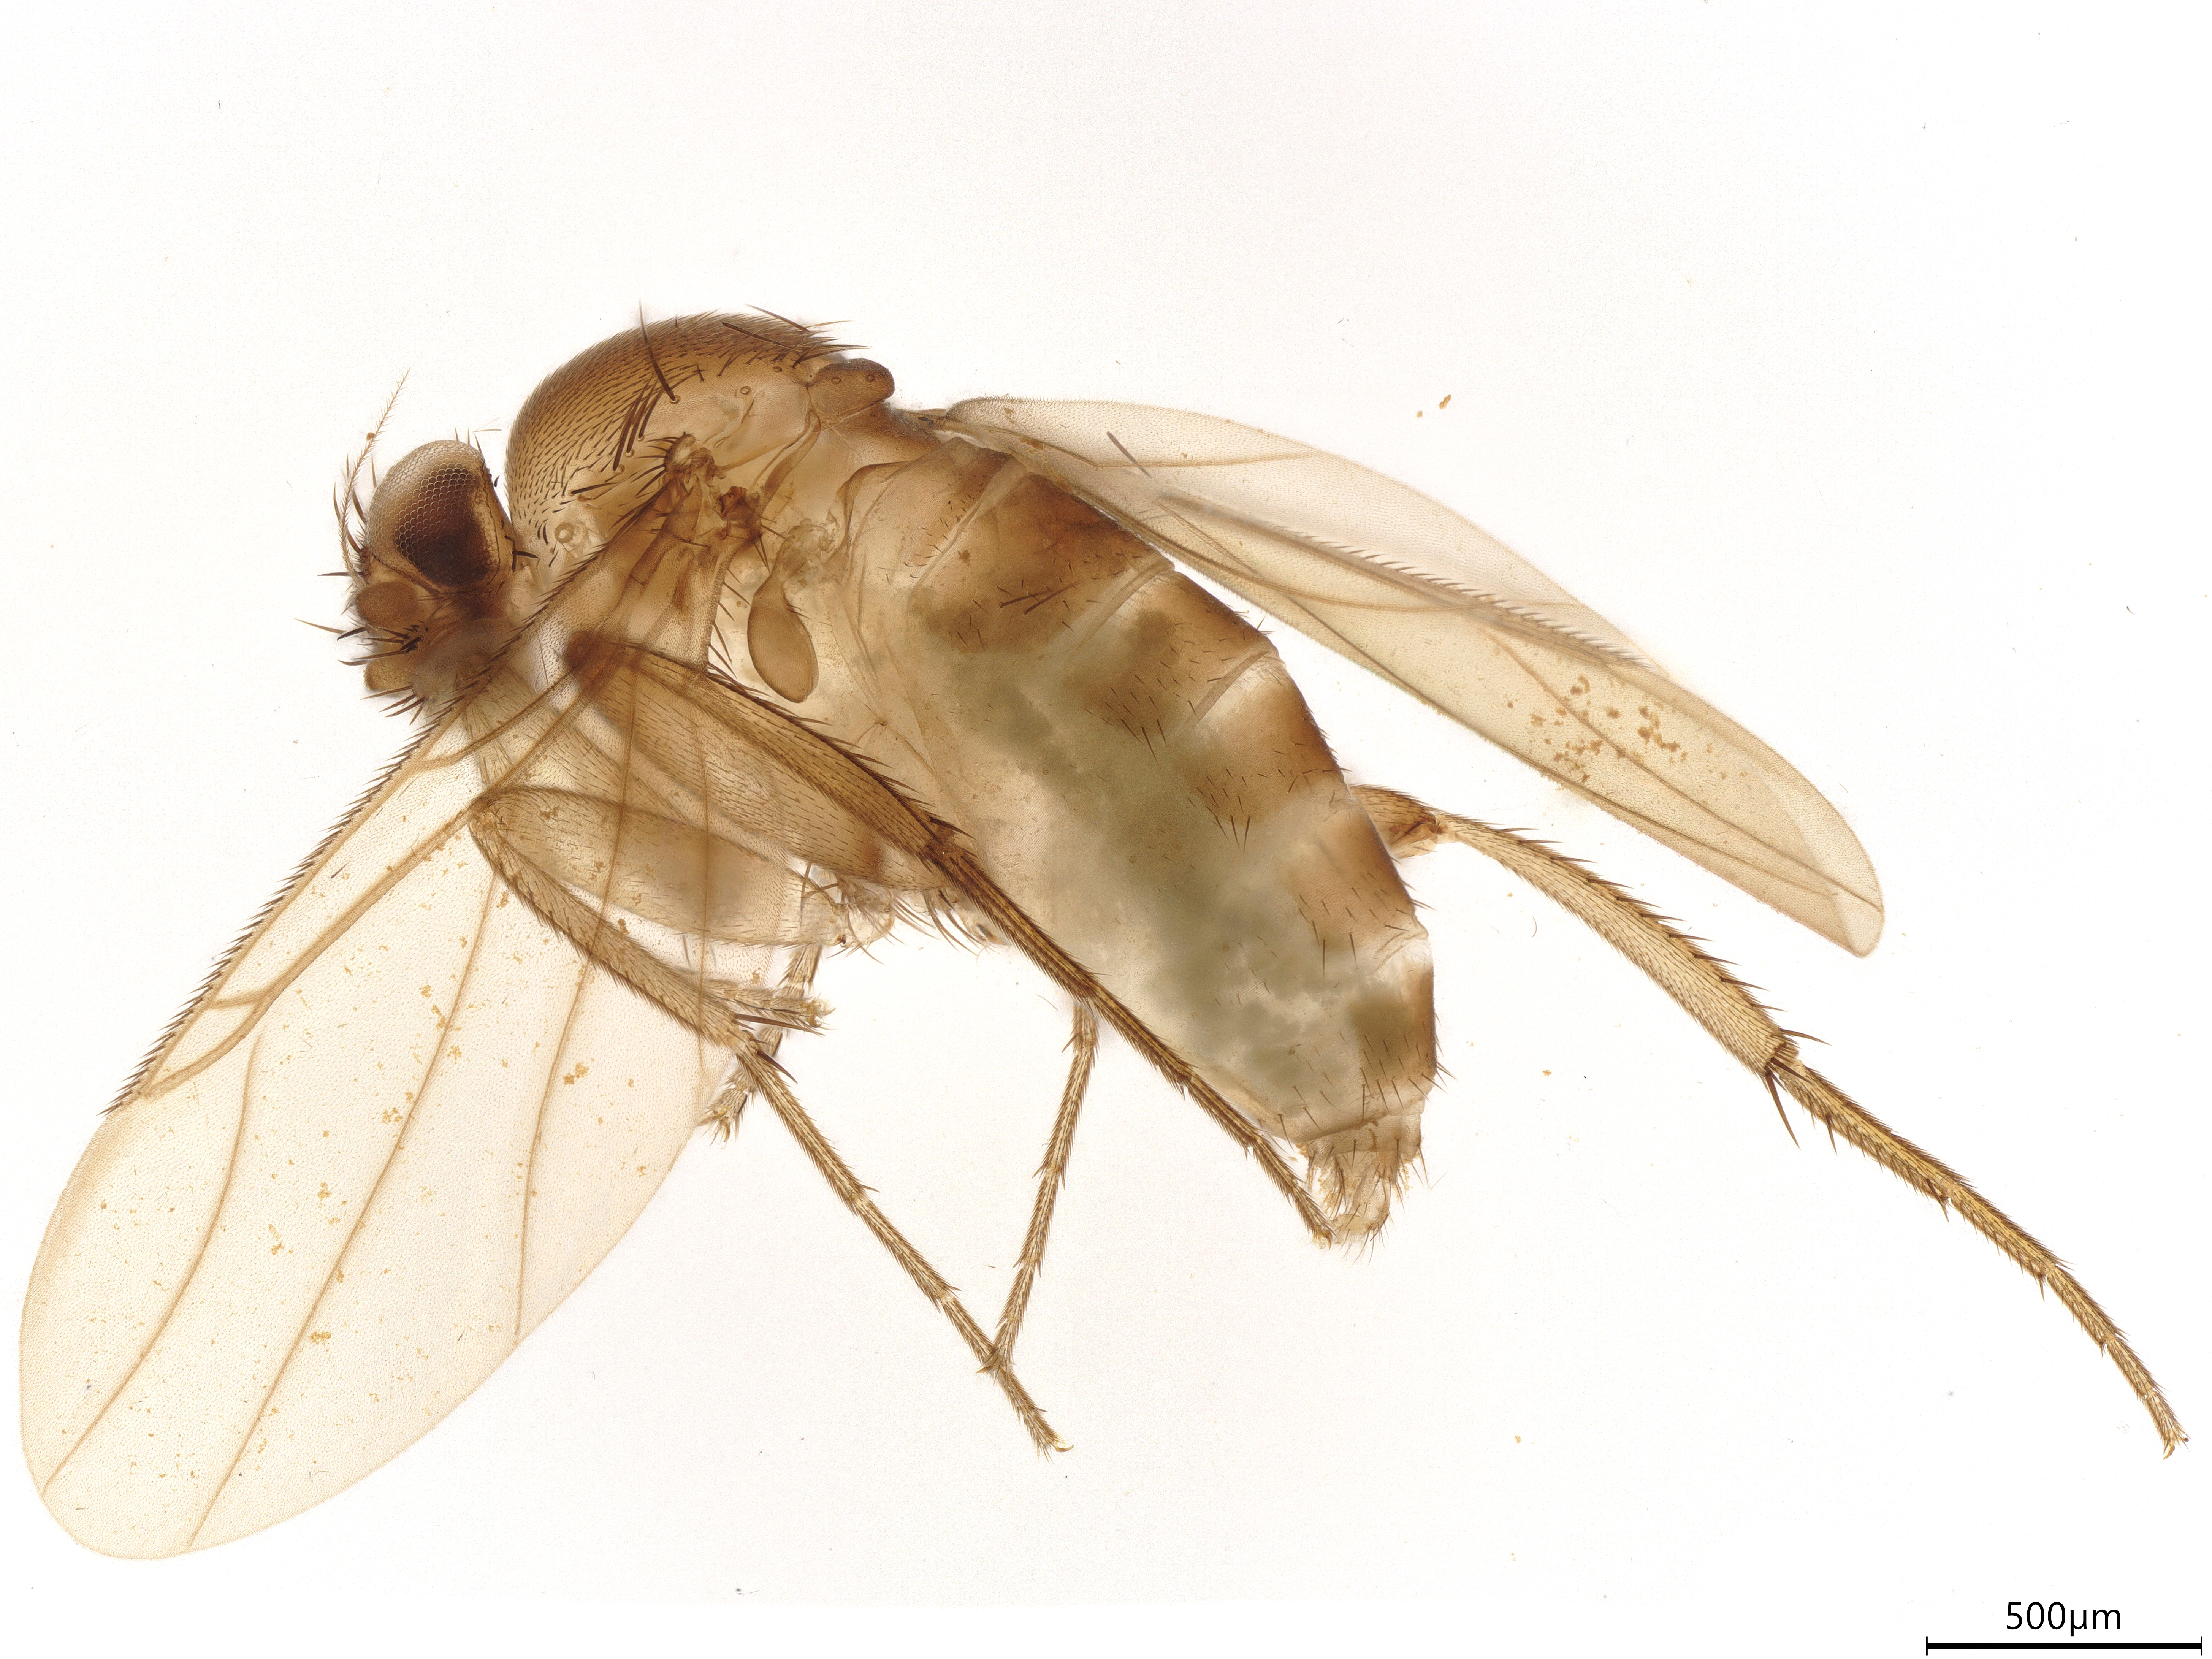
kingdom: Animalia
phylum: Arthropoda
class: Insecta
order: Diptera
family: Phoridae
